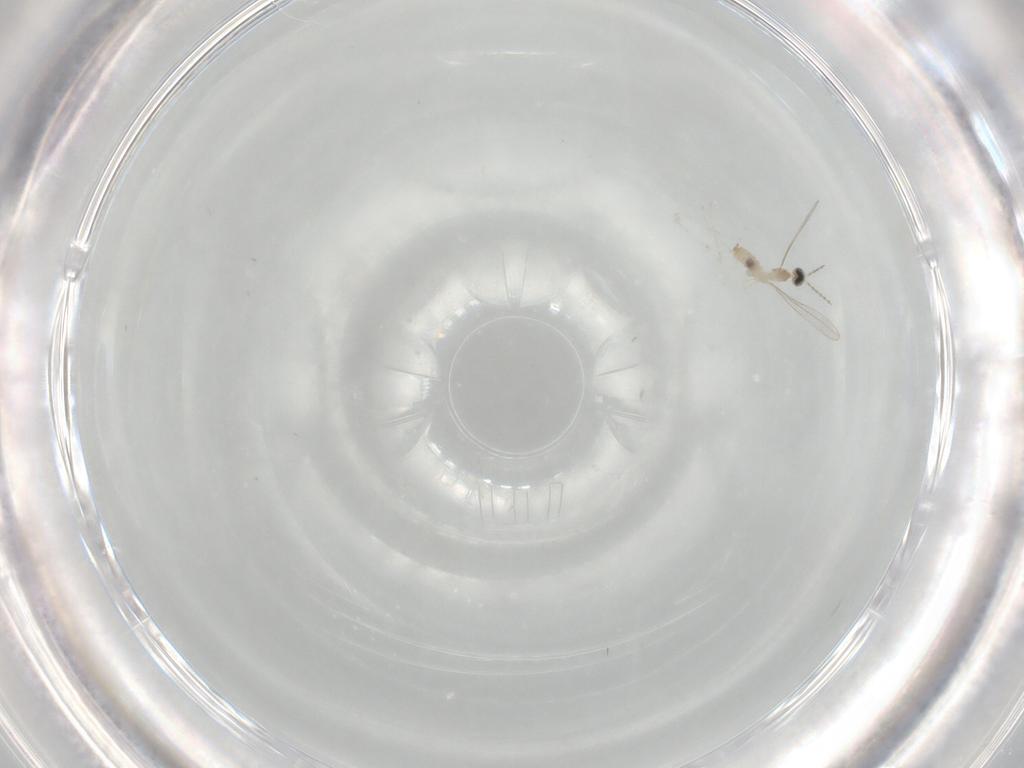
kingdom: Animalia
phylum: Arthropoda
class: Insecta
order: Diptera
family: Cecidomyiidae
